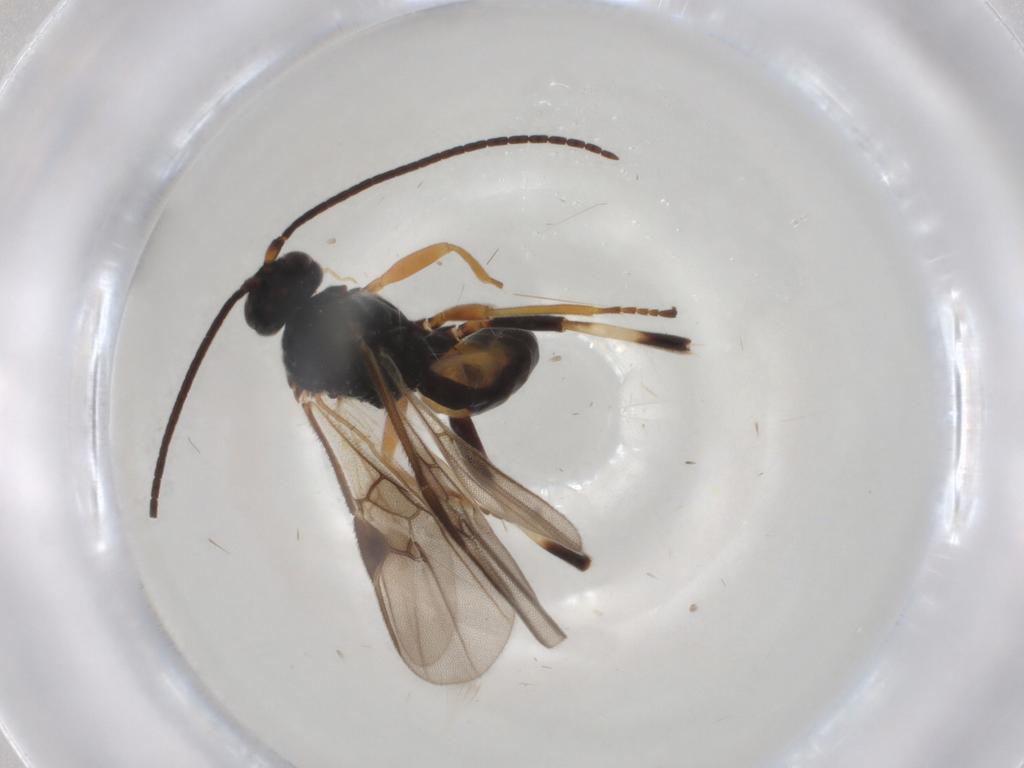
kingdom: Animalia
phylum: Arthropoda
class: Insecta
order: Hymenoptera
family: Braconidae
